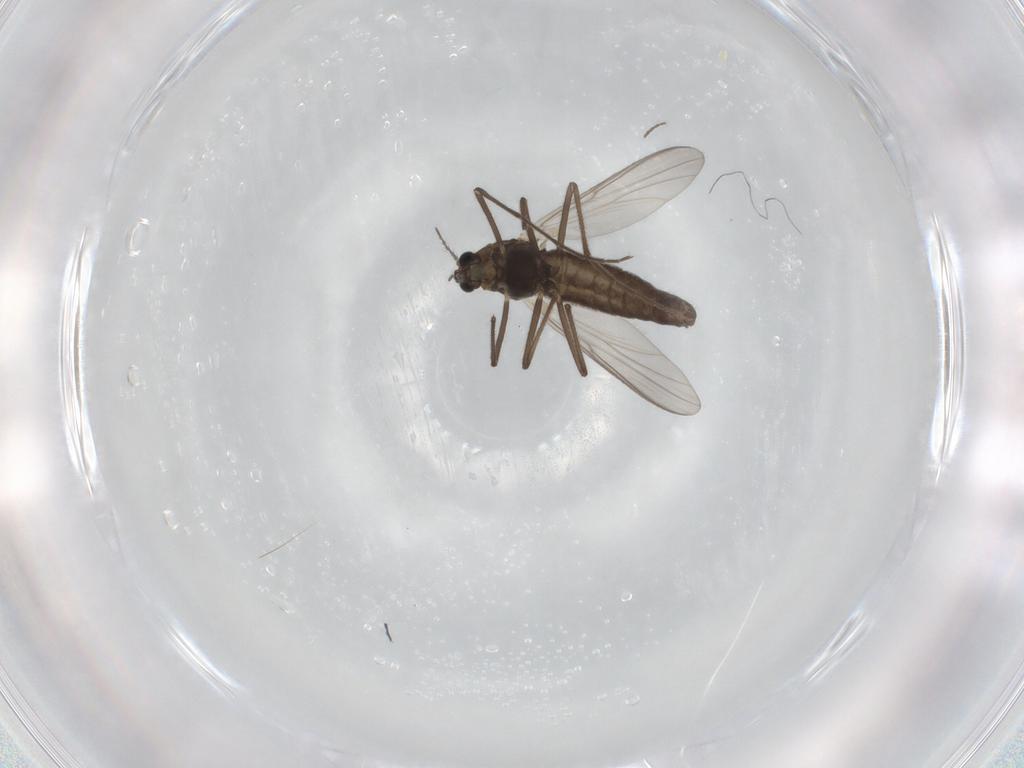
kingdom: Animalia
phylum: Arthropoda
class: Insecta
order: Diptera
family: Chironomidae
